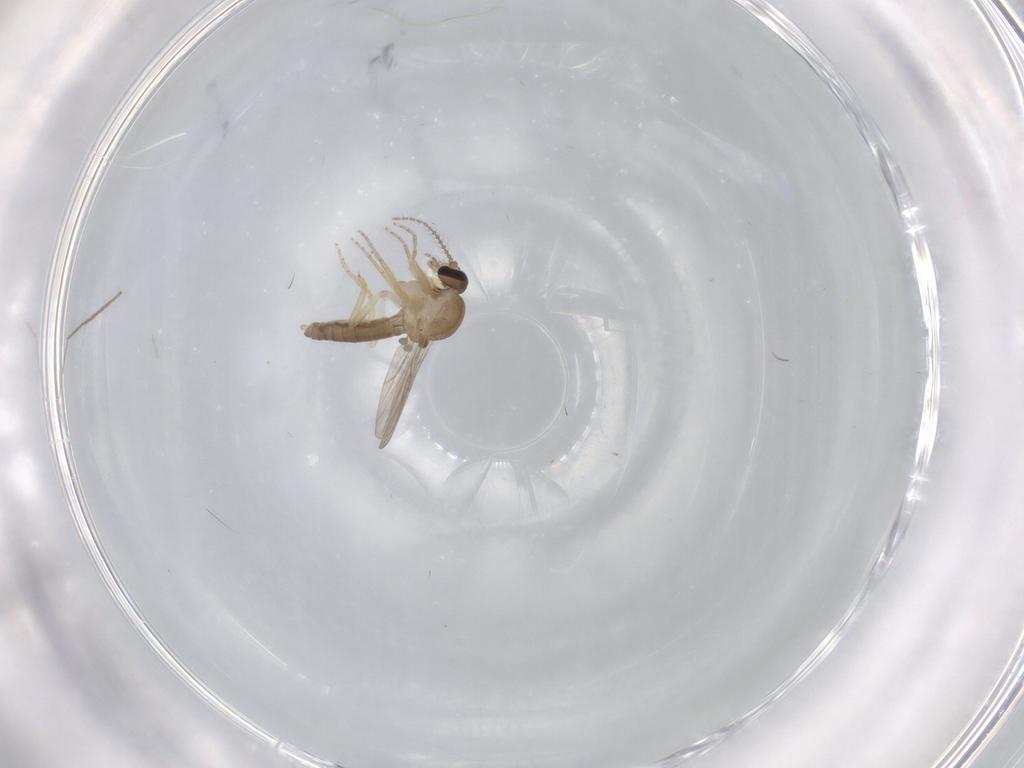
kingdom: Animalia
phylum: Arthropoda
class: Insecta
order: Diptera
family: Ceratopogonidae
